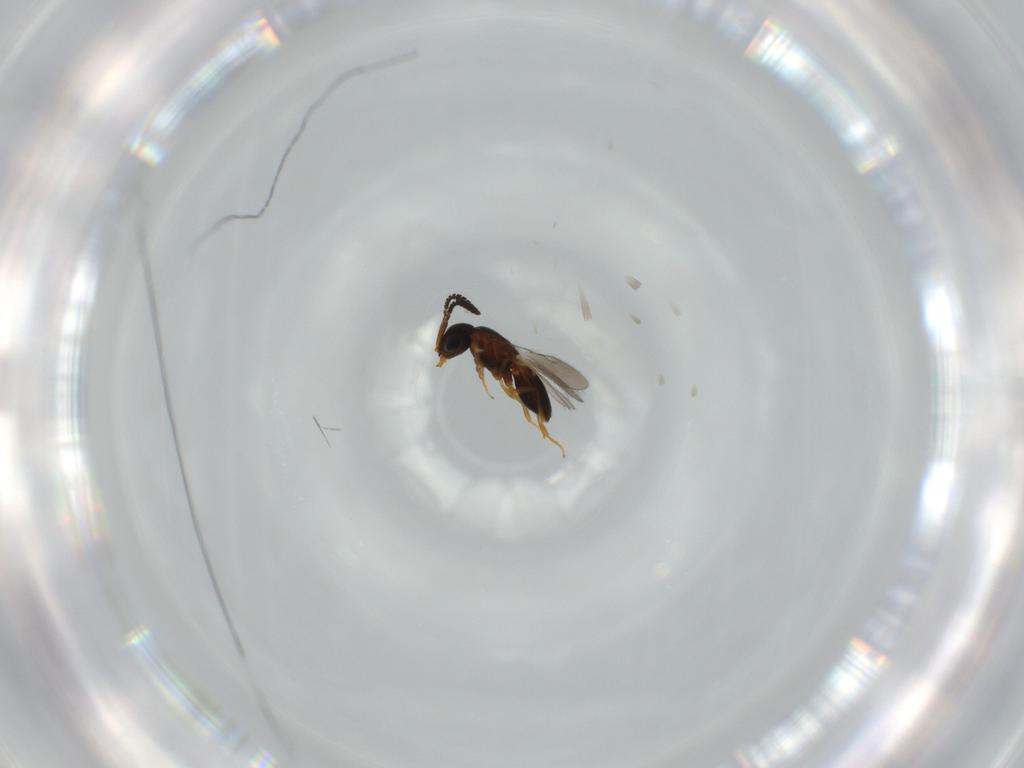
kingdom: Animalia
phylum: Arthropoda
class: Insecta
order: Hymenoptera
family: Scelionidae
